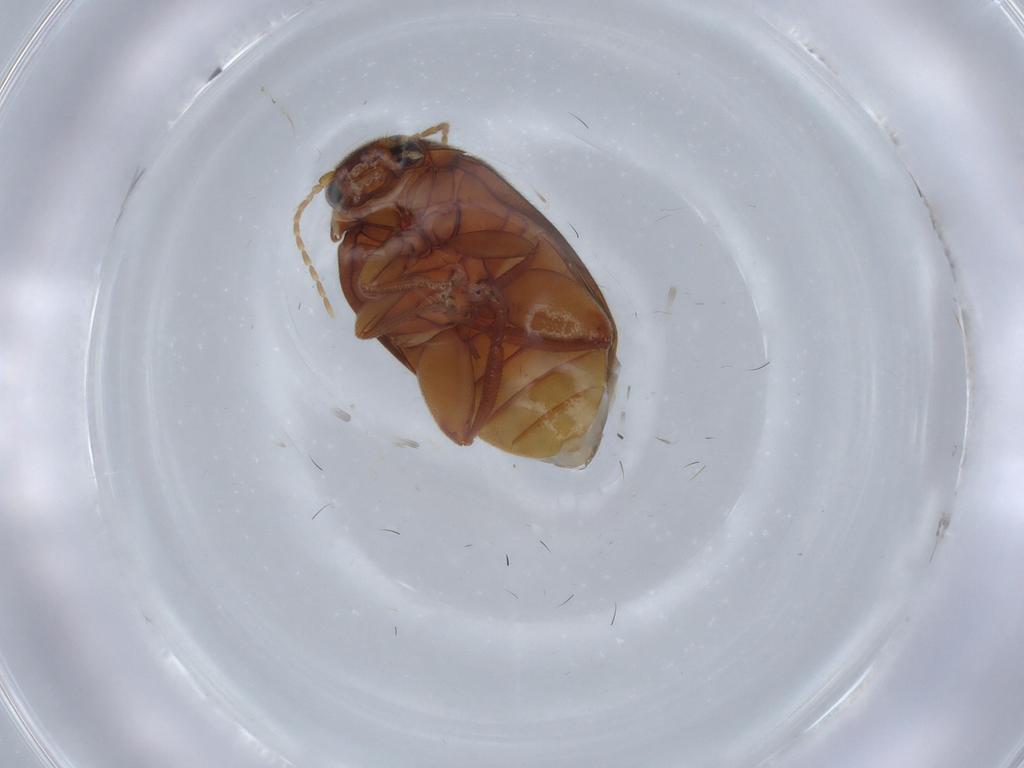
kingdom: Animalia
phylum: Arthropoda
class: Insecta
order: Coleoptera
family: Scirtidae
